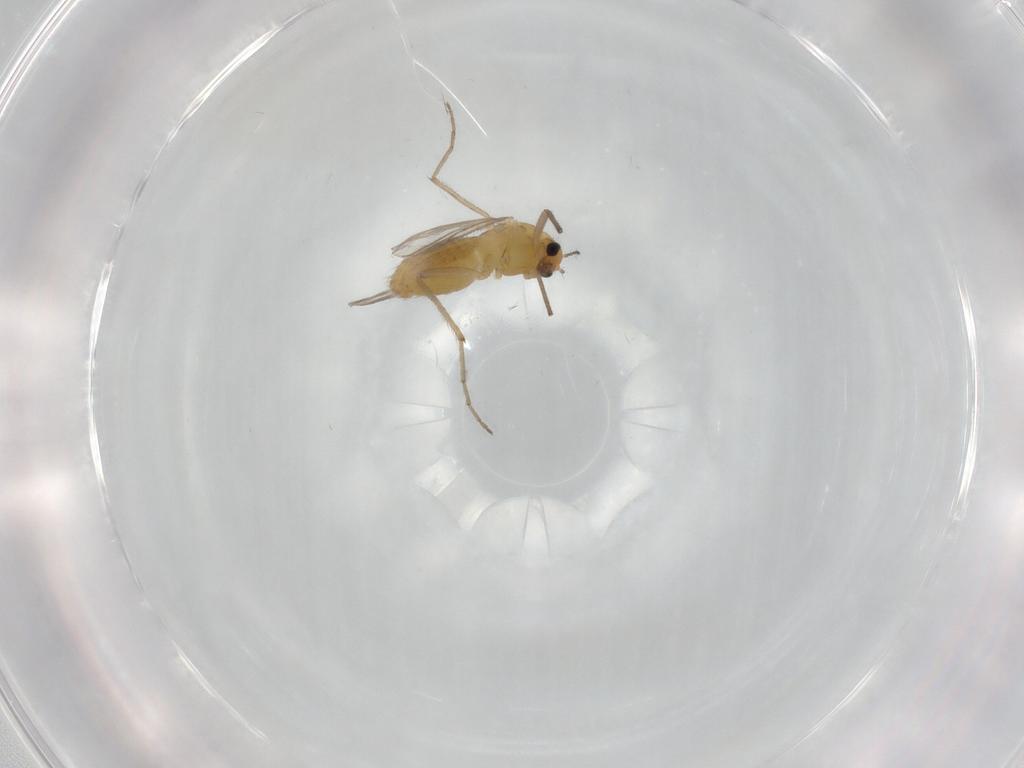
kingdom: Animalia
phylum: Arthropoda
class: Insecta
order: Diptera
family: Chironomidae
